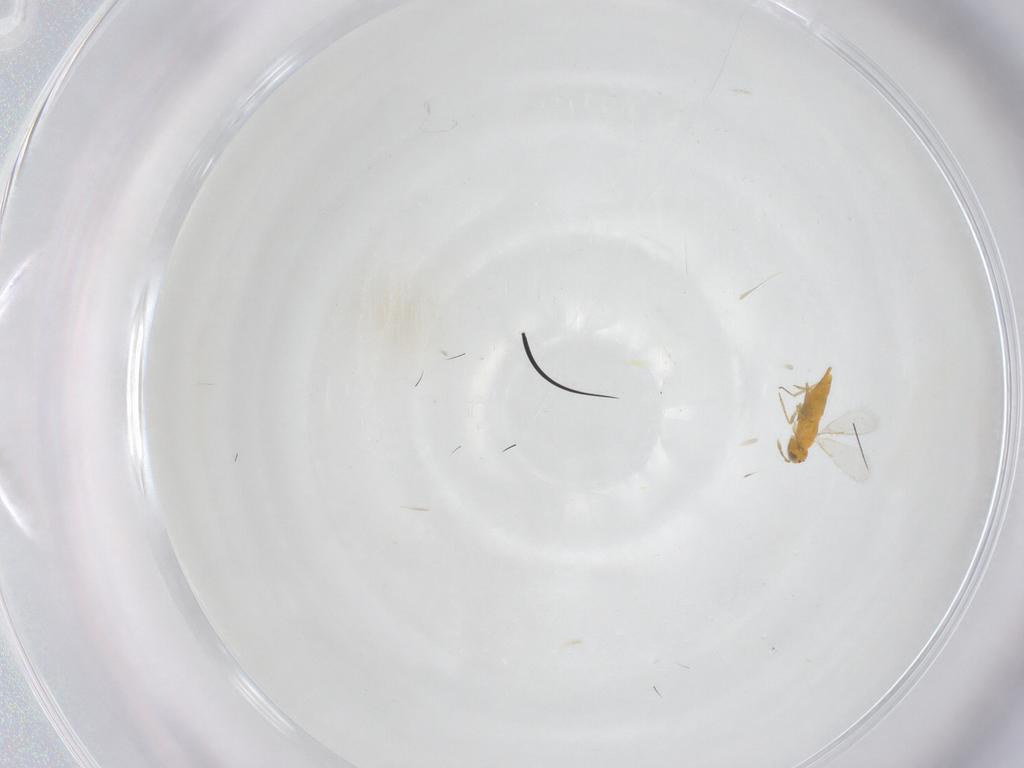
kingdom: Animalia
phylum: Arthropoda
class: Insecta
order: Hymenoptera
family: Aphelinidae
